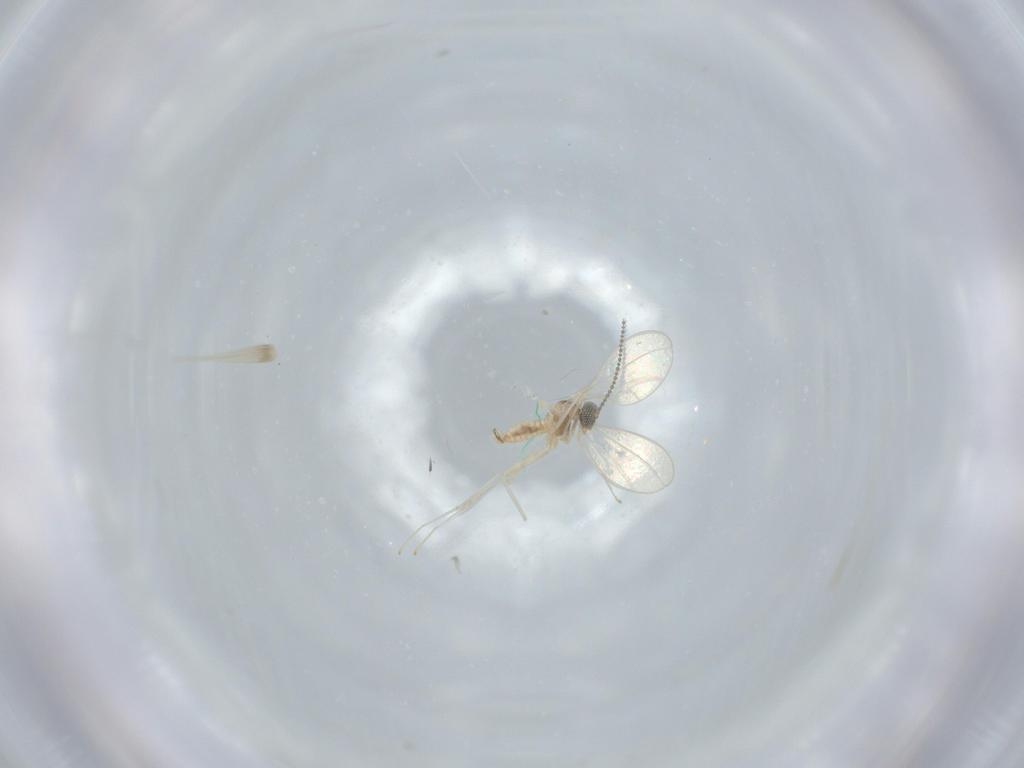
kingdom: Animalia
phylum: Arthropoda
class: Insecta
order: Diptera
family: Cecidomyiidae
